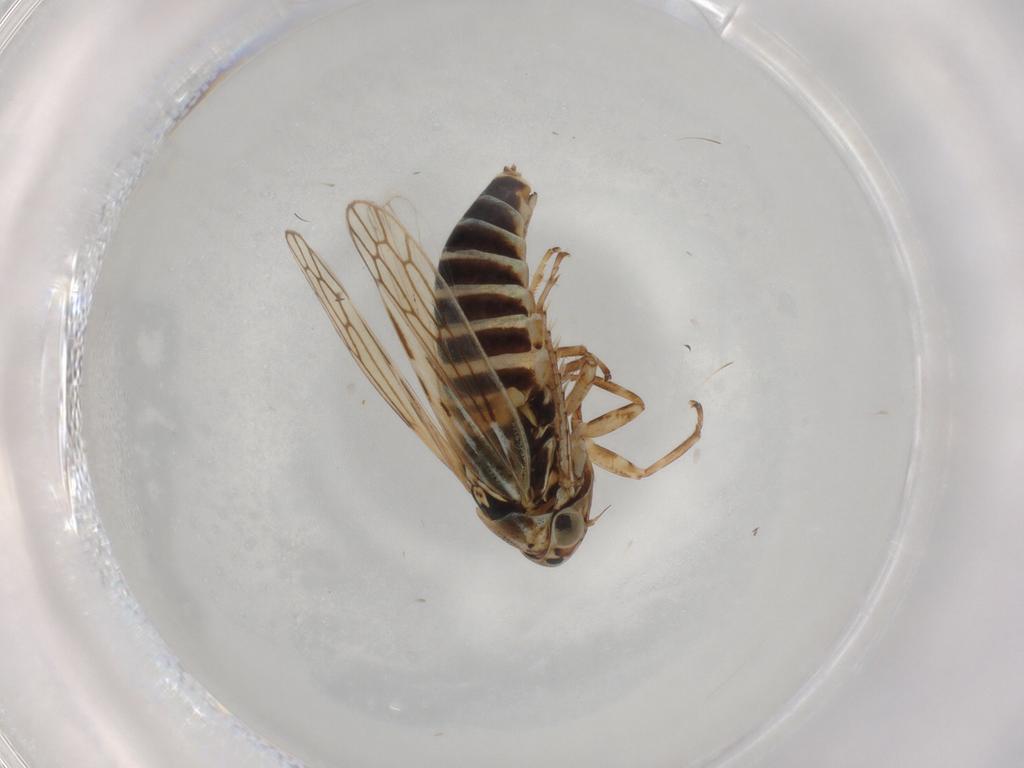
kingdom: Animalia
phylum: Arthropoda
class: Insecta
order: Hemiptera
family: Cicadellidae
